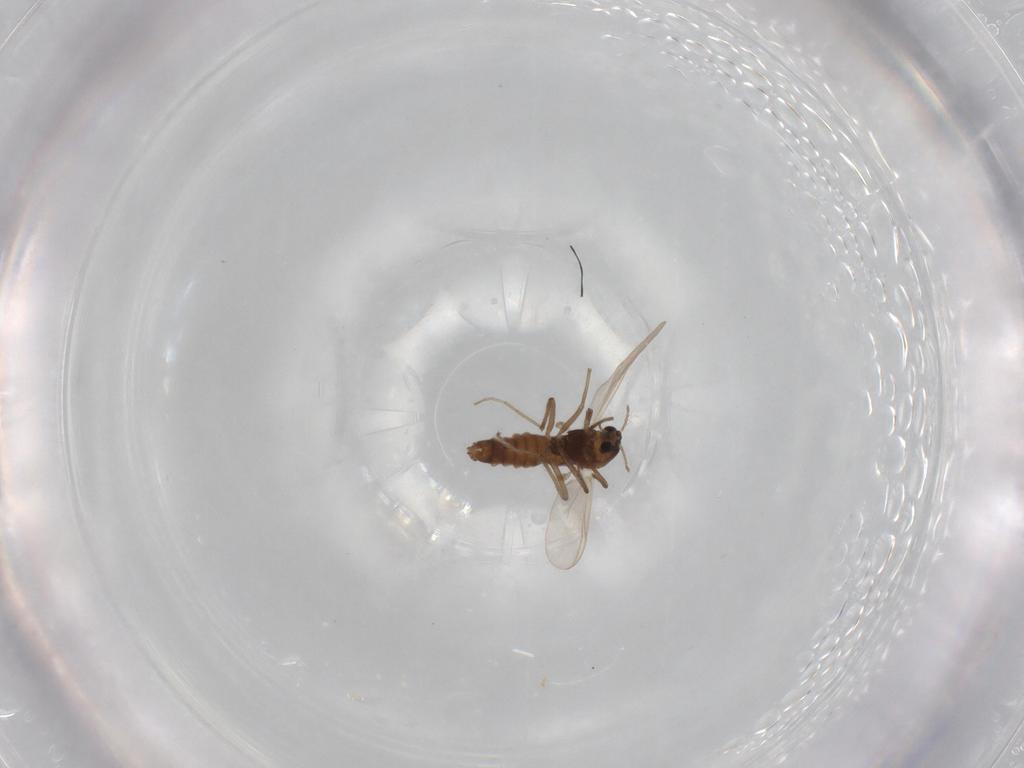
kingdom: Animalia
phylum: Arthropoda
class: Insecta
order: Diptera
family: Chironomidae
